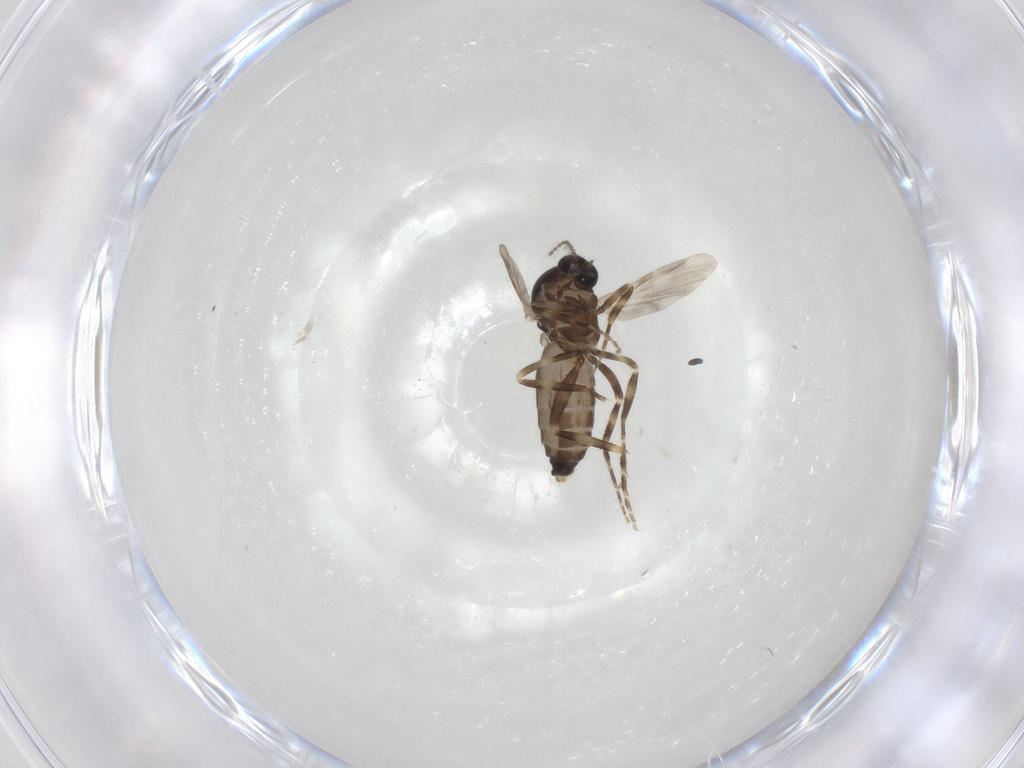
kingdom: Animalia
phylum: Arthropoda
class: Insecta
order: Diptera
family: Ceratopogonidae
